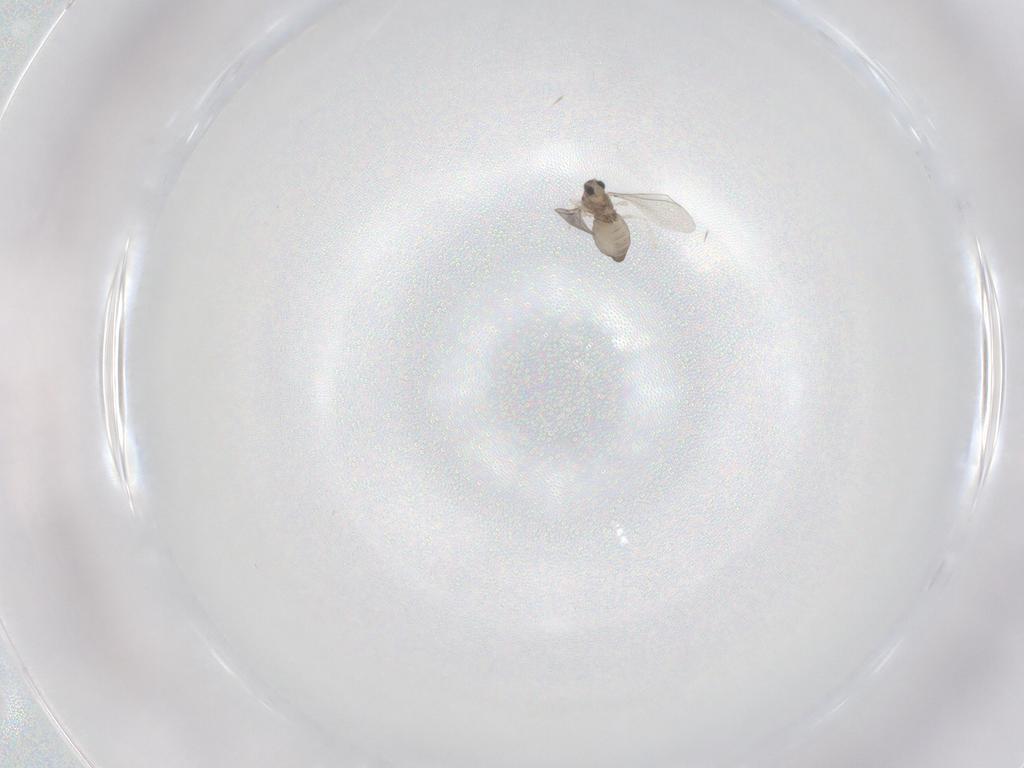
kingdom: Animalia
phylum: Arthropoda
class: Insecta
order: Diptera
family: Cecidomyiidae
